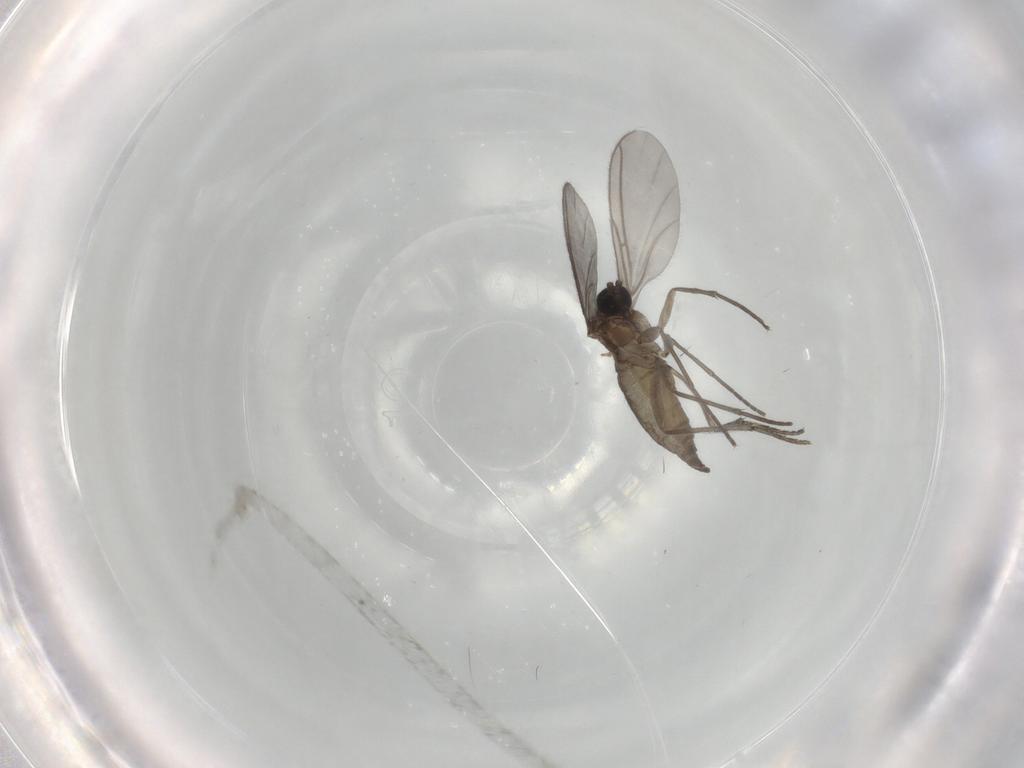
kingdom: Animalia
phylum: Arthropoda
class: Insecta
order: Diptera
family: Sciaridae
